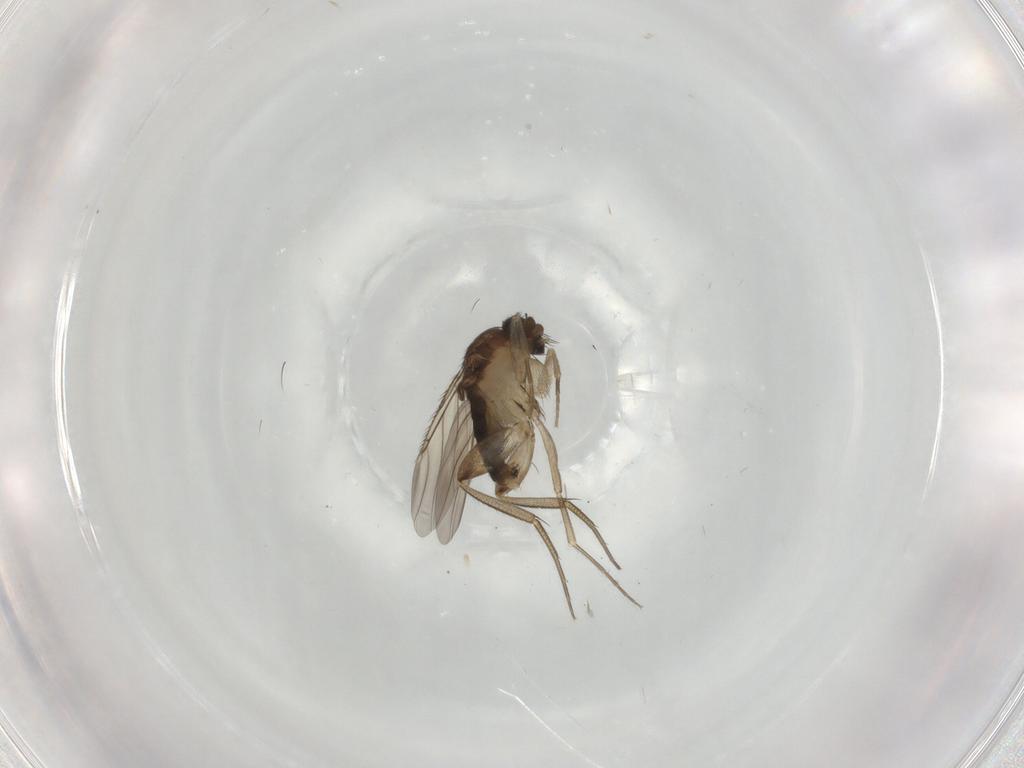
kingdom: Animalia
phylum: Arthropoda
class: Insecta
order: Diptera
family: Phoridae
